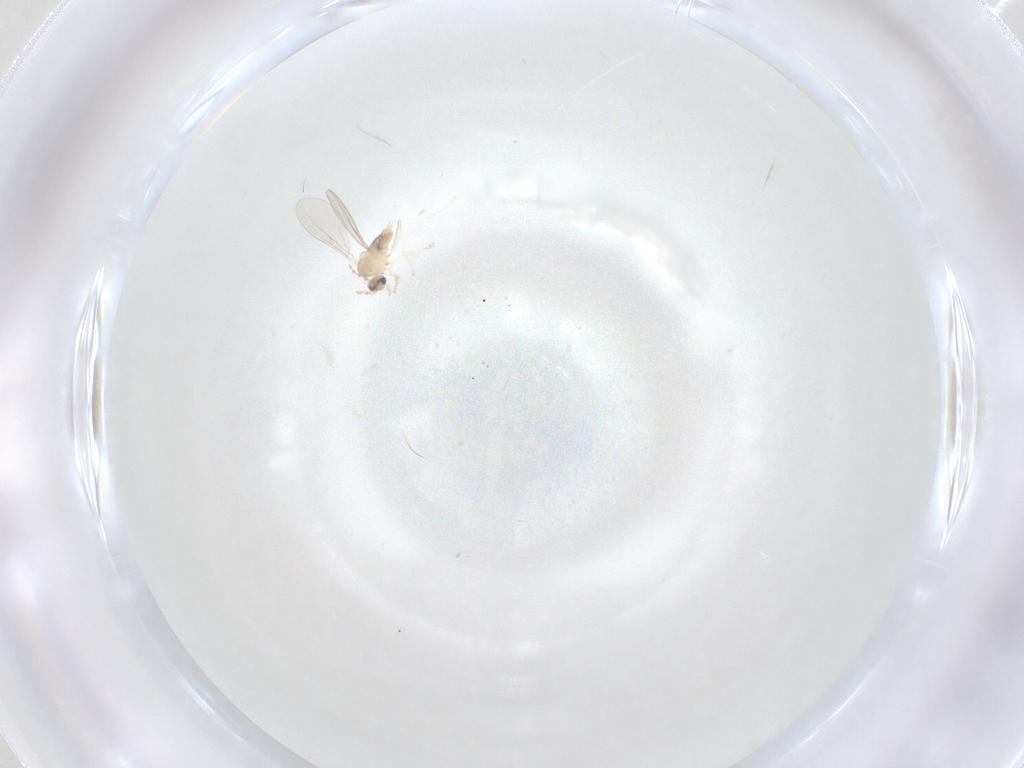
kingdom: Animalia
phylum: Arthropoda
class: Insecta
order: Diptera
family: Cecidomyiidae
